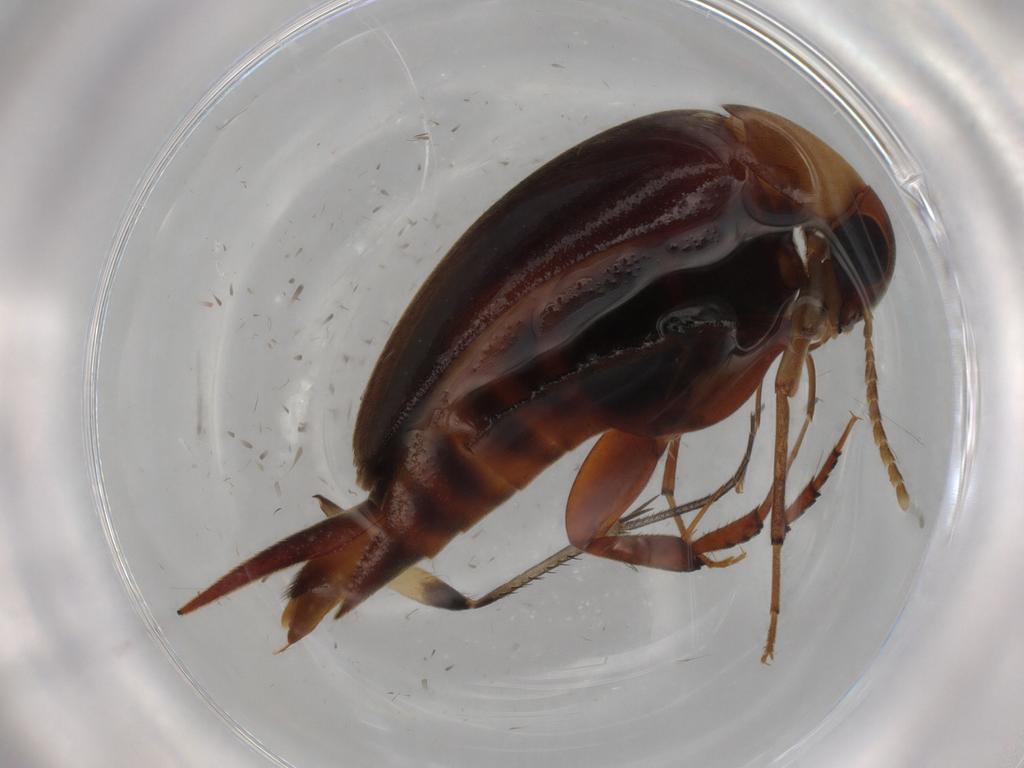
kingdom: Animalia
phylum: Arthropoda
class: Insecta
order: Coleoptera
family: Mordellidae
